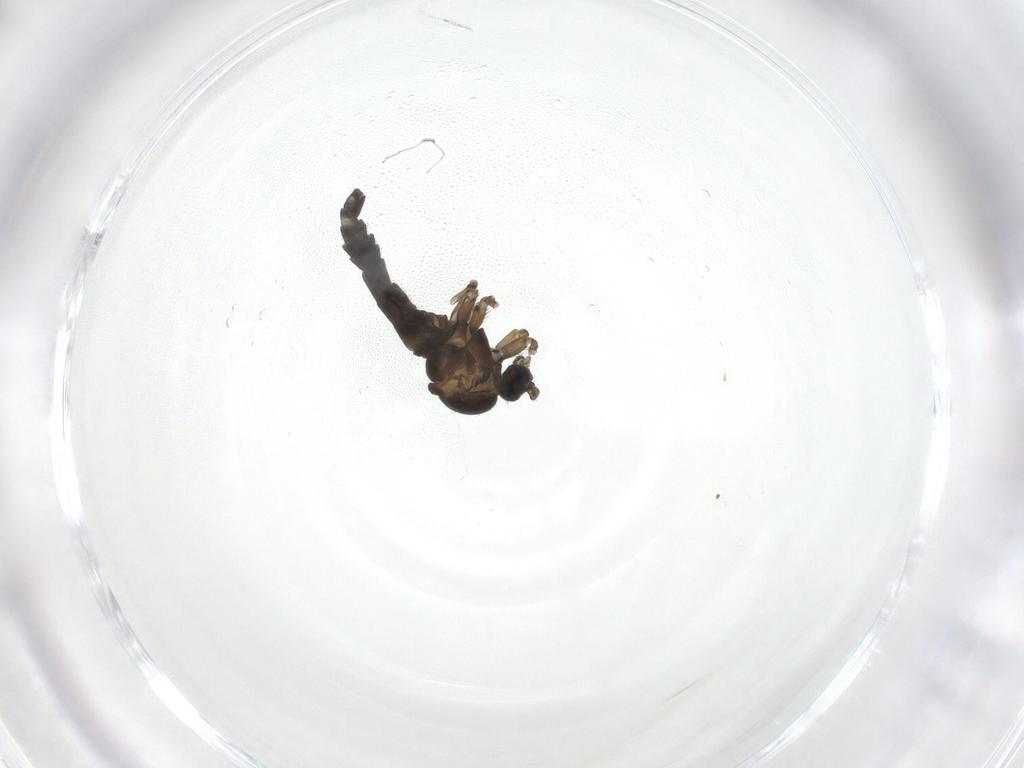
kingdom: Animalia
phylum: Arthropoda
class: Insecta
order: Diptera
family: Sciaridae
